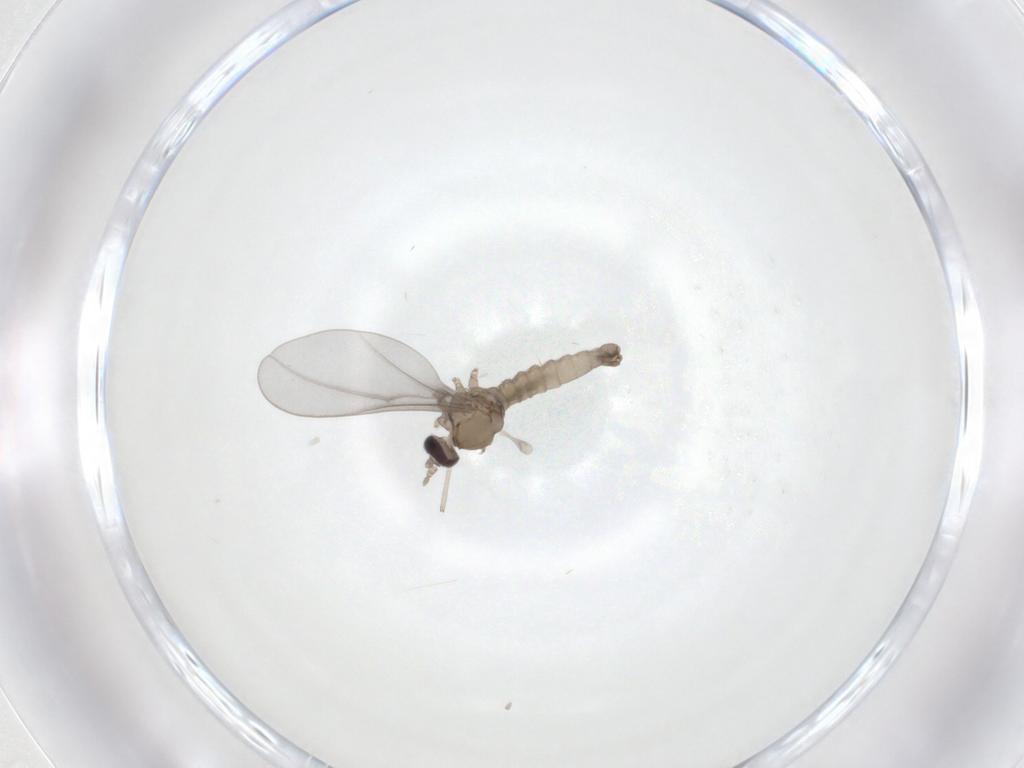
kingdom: Animalia
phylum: Arthropoda
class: Insecta
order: Diptera
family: Cecidomyiidae
